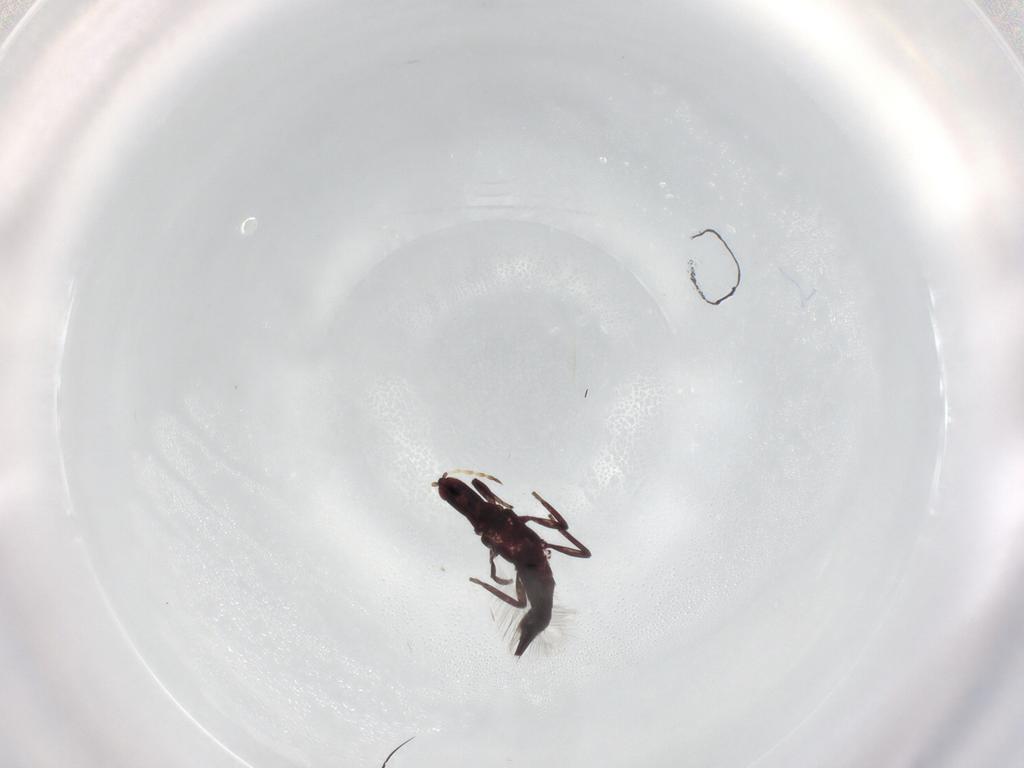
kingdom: Animalia
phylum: Arthropoda
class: Insecta
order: Thysanoptera
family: Phlaeothripidae
